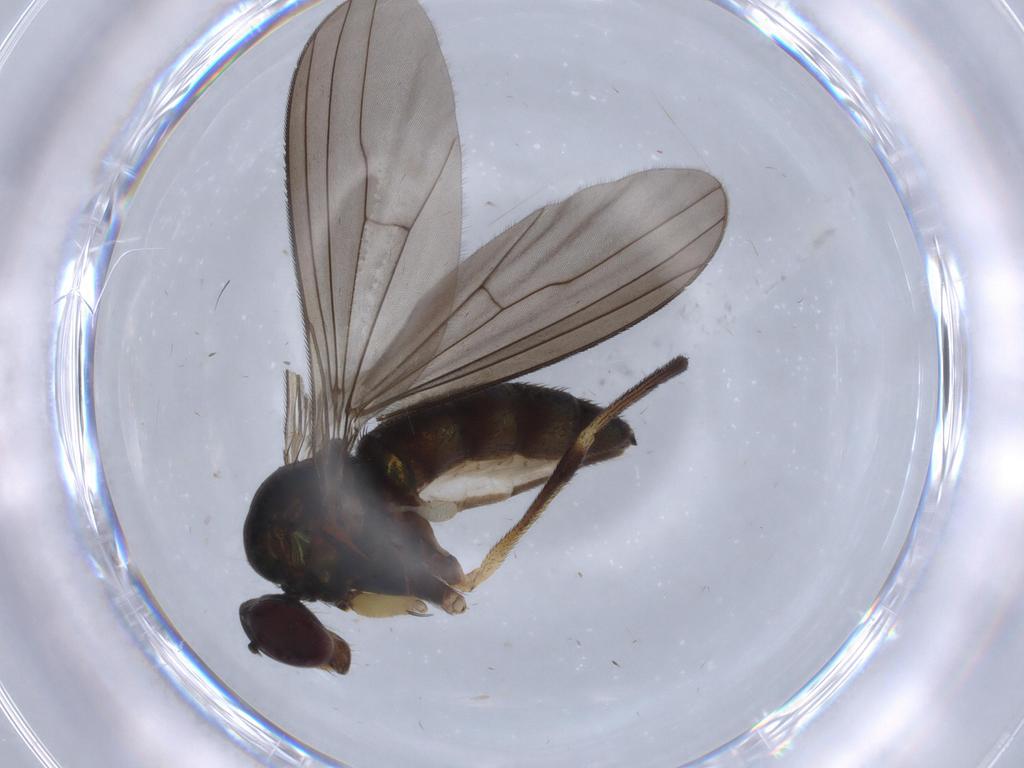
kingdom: Animalia
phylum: Arthropoda
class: Insecta
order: Diptera
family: Dolichopodidae
